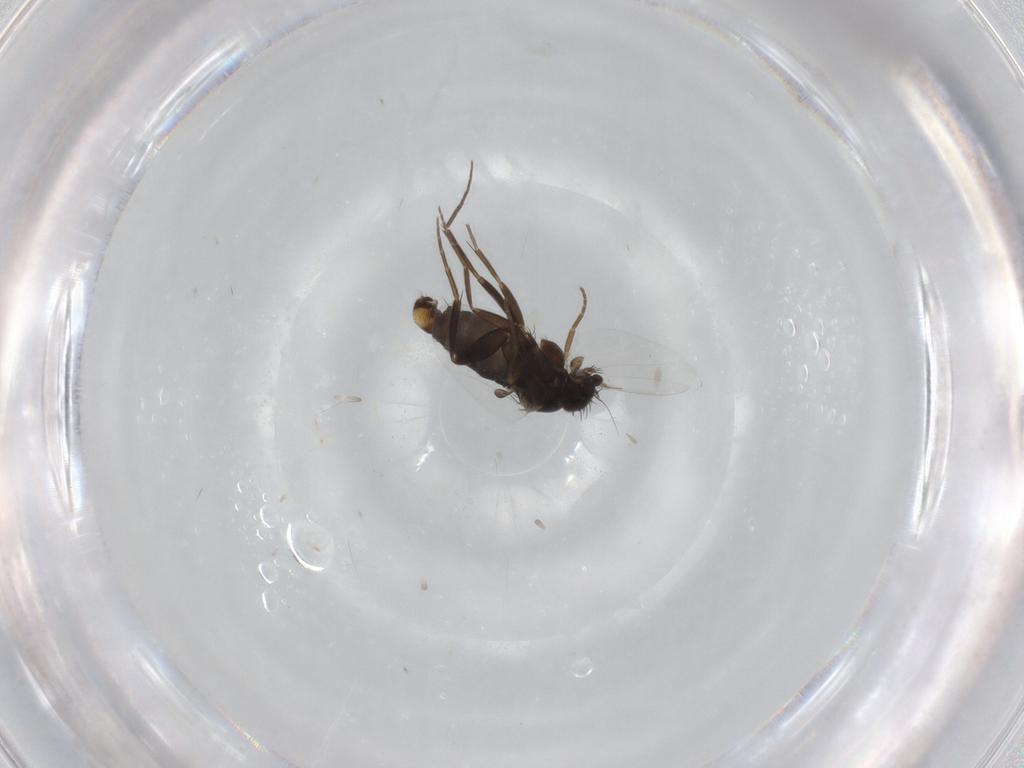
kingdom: Animalia
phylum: Arthropoda
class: Insecta
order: Diptera
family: Phoridae
